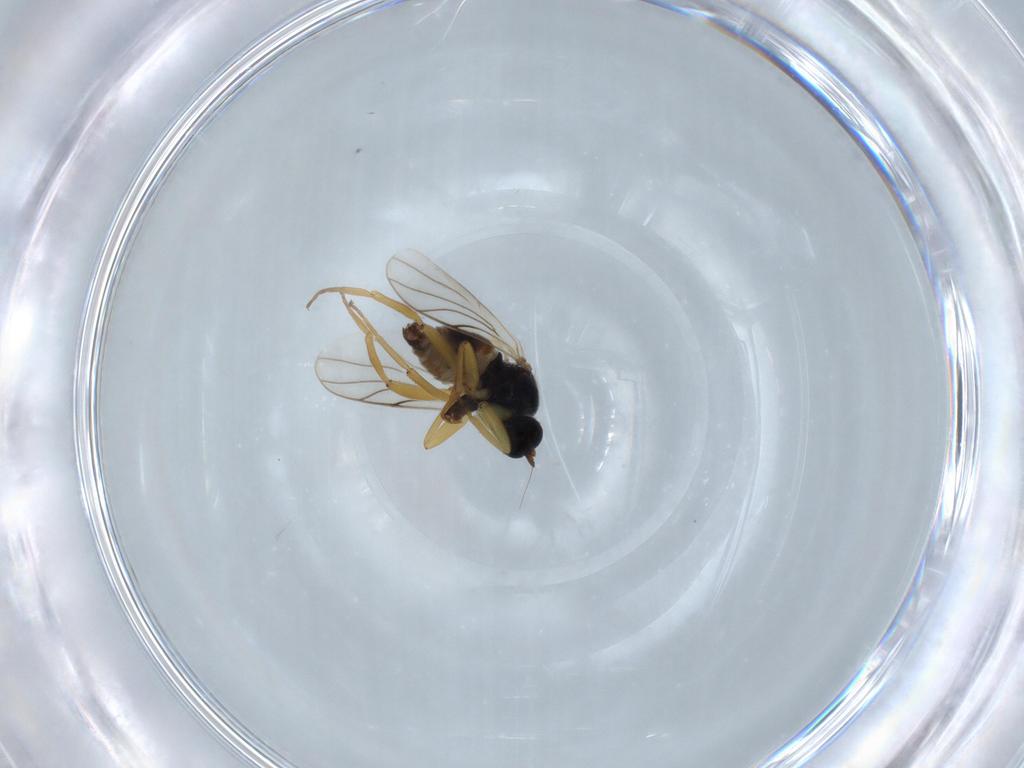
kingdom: Animalia
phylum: Arthropoda
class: Insecta
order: Diptera
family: Hybotidae
